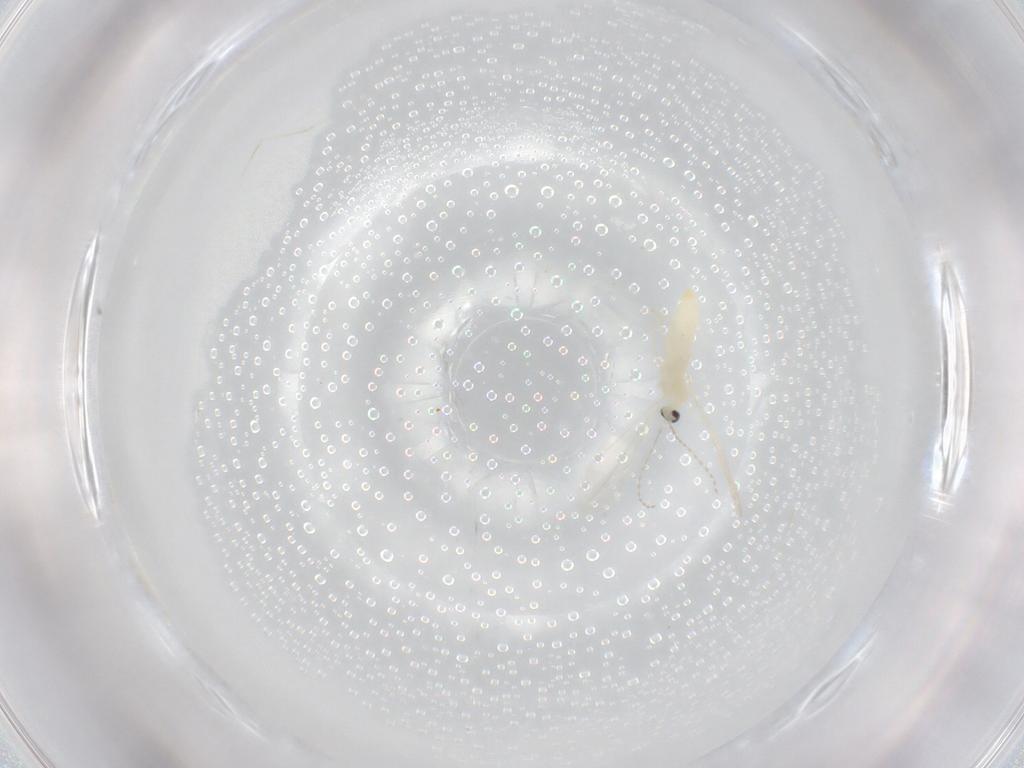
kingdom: Animalia
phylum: Arthropoda
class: Insecta
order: Diptera
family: Cecidomyiidae
